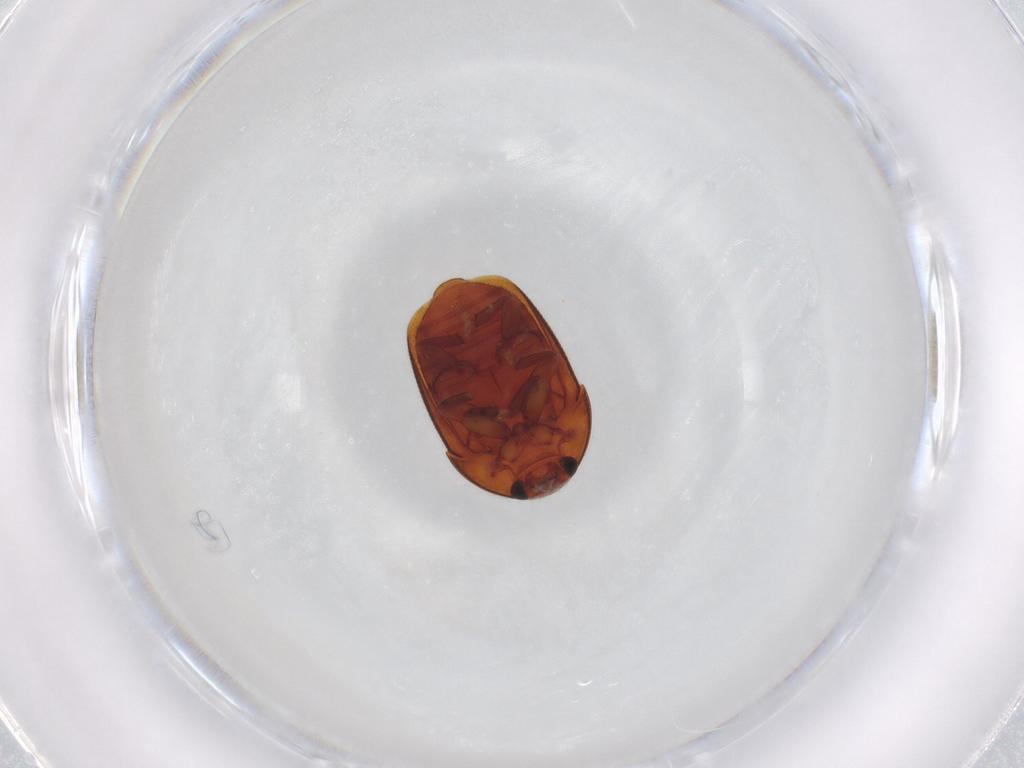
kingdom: Animalia
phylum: Arthropoda
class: Insecta
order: Coleoptera
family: Nitidulidae
